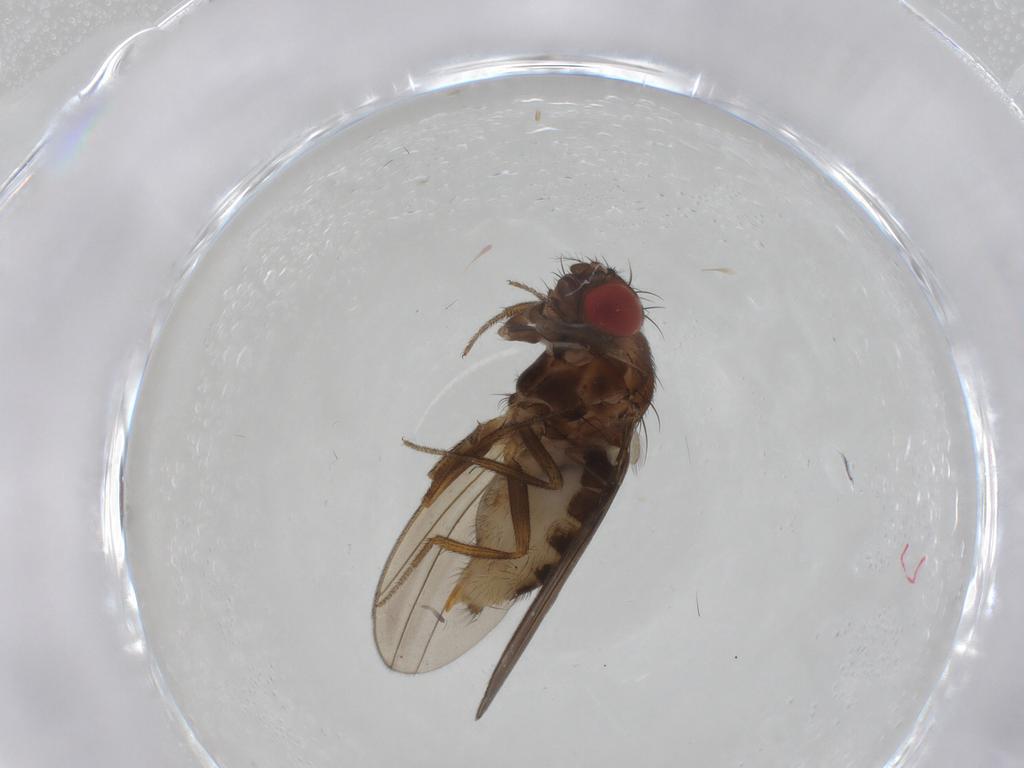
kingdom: Animalia
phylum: Arthropoda
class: Insecta
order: Diptera
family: Drosophilidae
